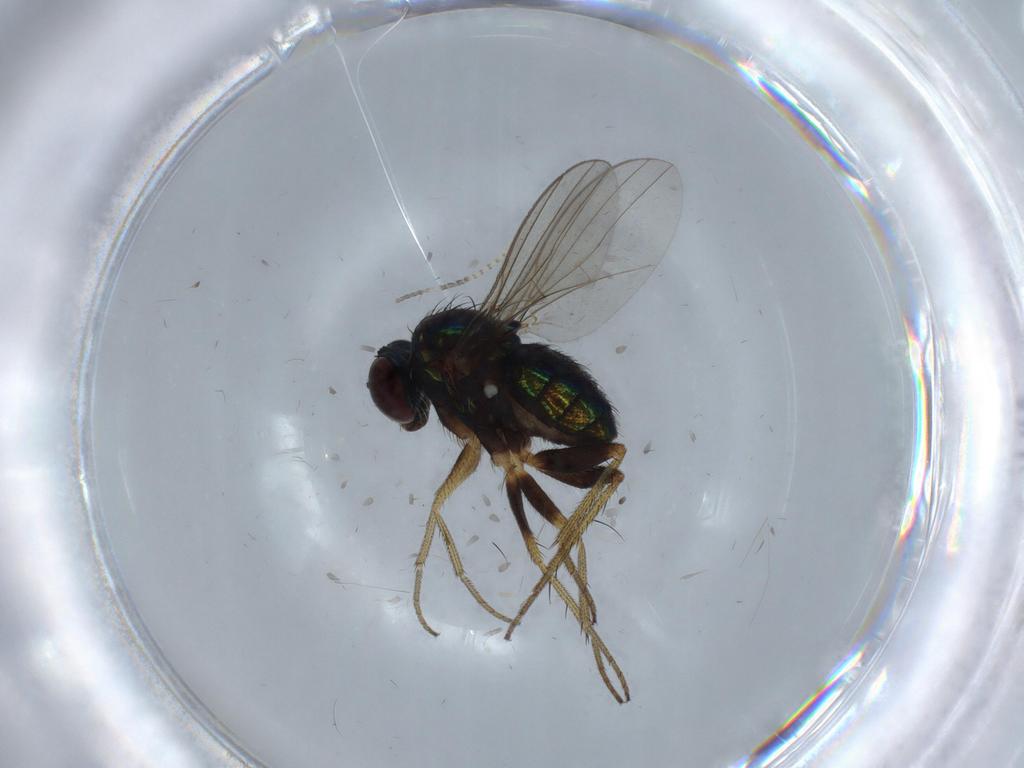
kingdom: Animalia
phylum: Arthropoda
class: Insecta
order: Diptera
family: Dolichopodidae
